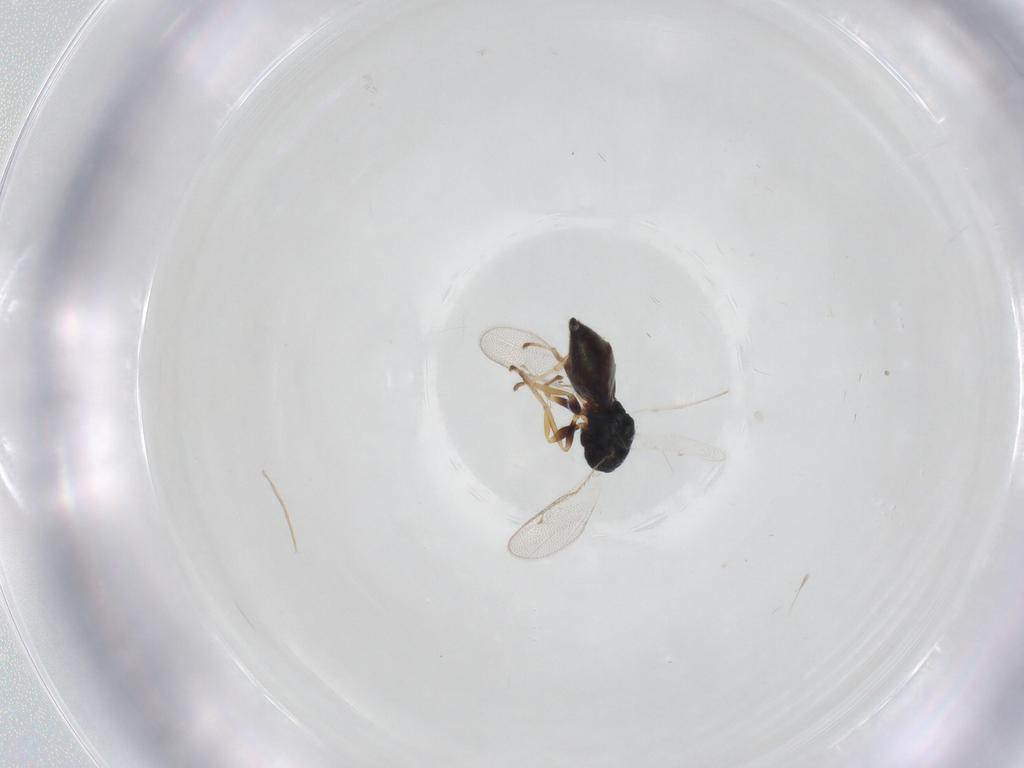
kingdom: Animalia
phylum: Arthropoda
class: Insecta
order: Hymenoptera
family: Pteromalidae
